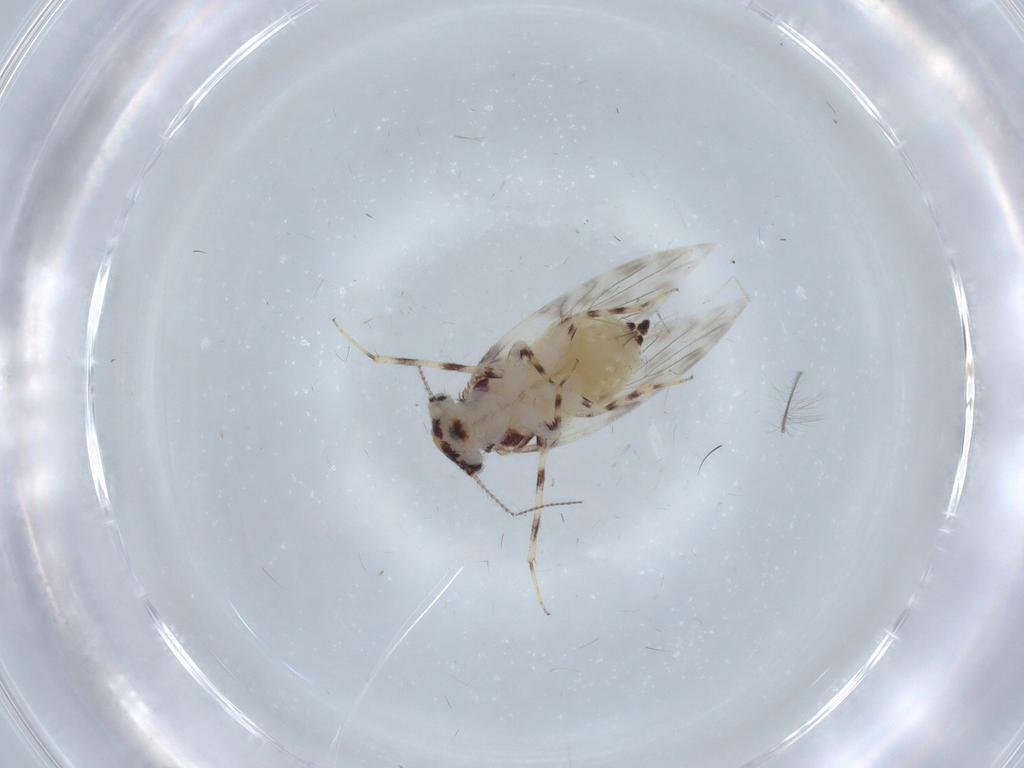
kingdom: Animalia
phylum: Arthropoda
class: Insecta
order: Psocodea
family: Lepidopsocidae
